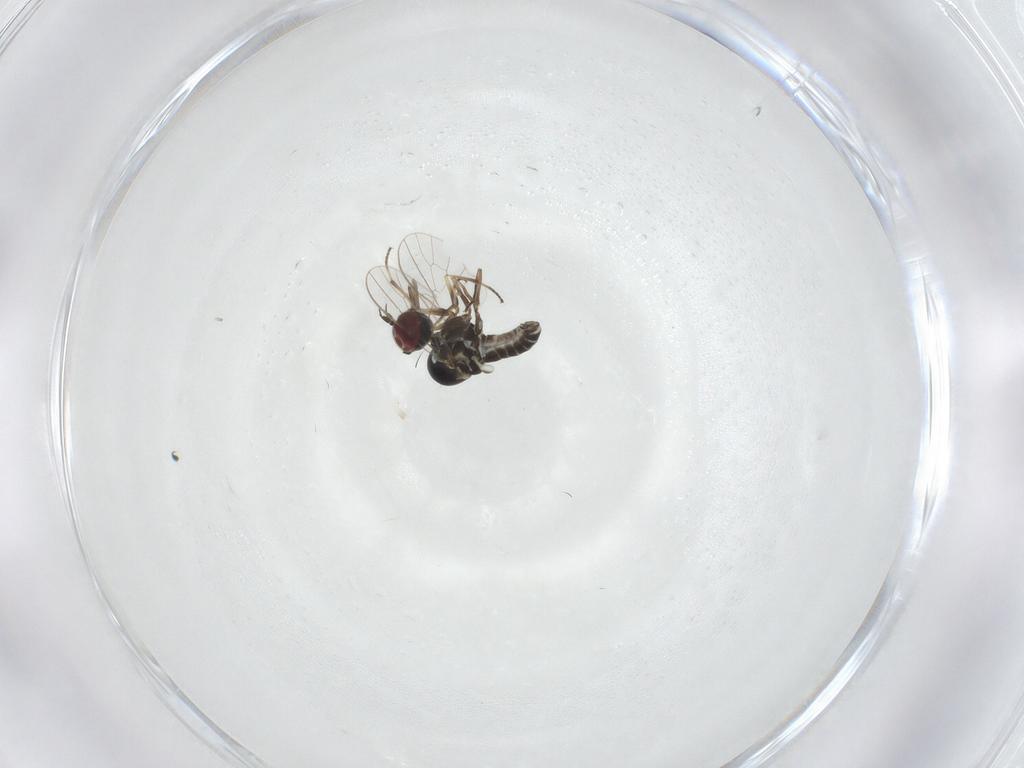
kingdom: Animalia
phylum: Arthropoda
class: Insecta
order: Diptera
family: Mythicomyiidae
